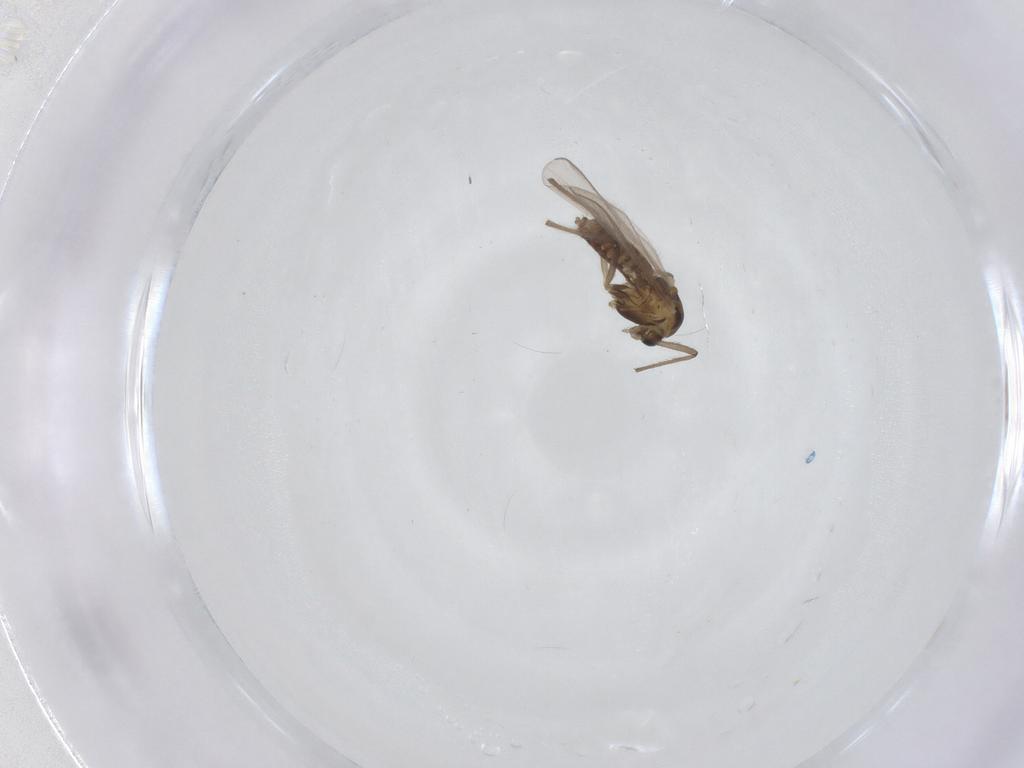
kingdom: Animalia
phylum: Arthropoda
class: Insecta
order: Diptera
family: Chironomidae
